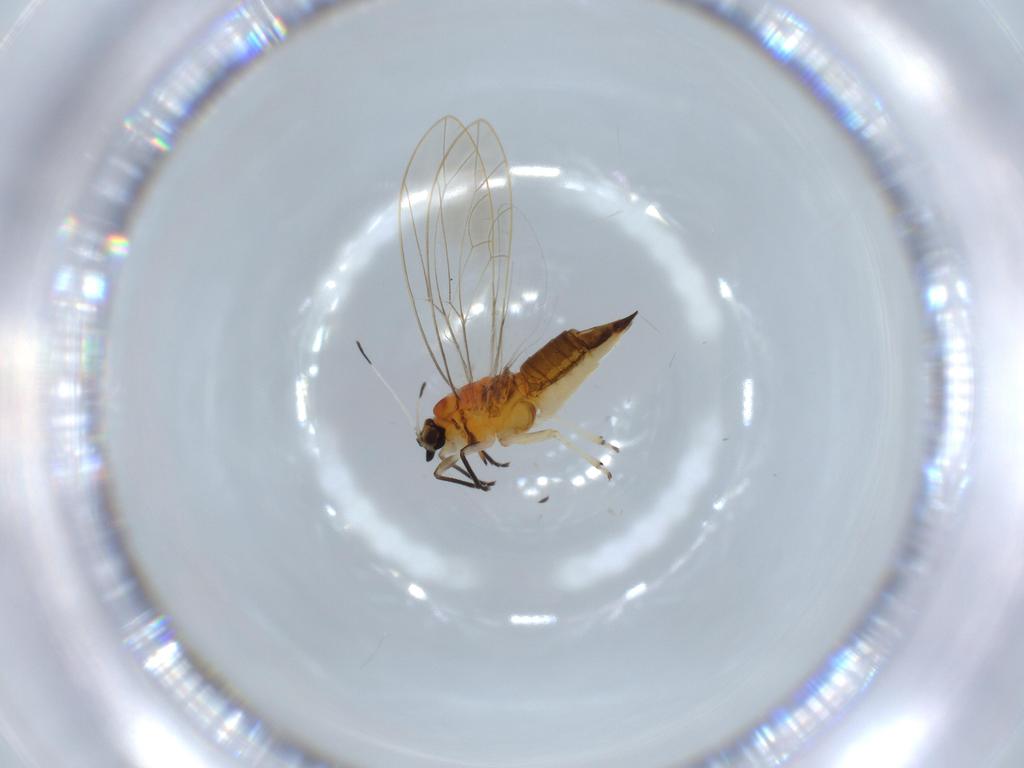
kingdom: Animalia
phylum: Arthropoda
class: Insecta
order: Hemiptera
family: Triozidae
